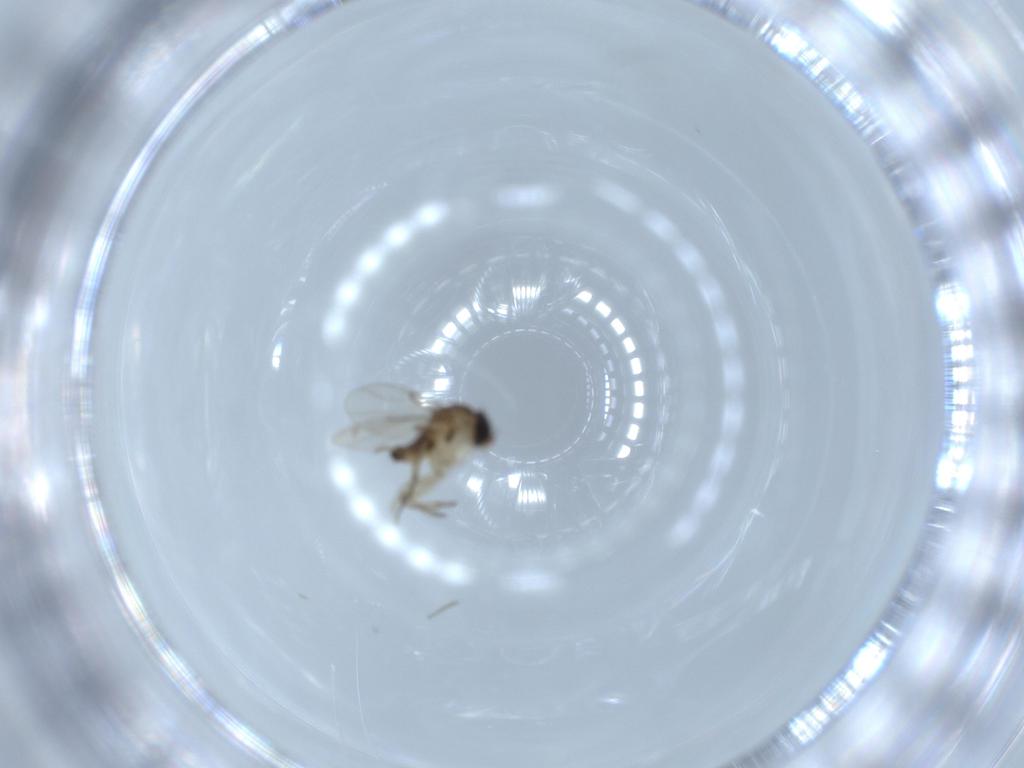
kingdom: Animalia
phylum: Arthropoda
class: Insecta
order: Diptera
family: Phoridae
